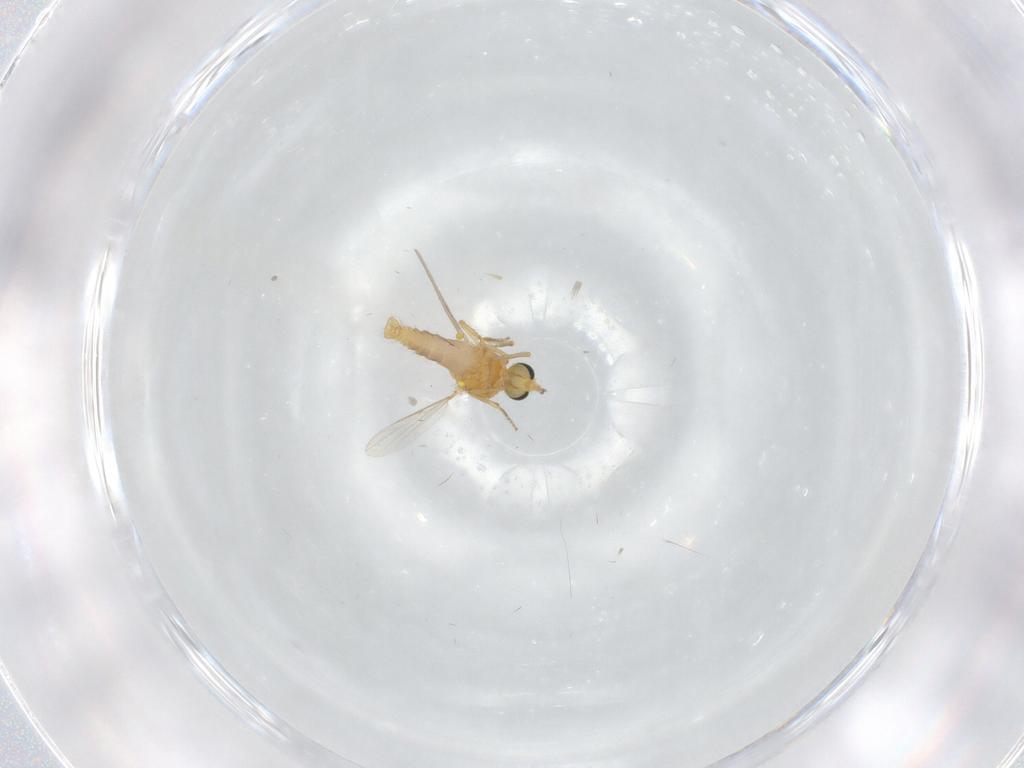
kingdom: Animalia
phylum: Arthropoda
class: Insecta
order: Diptera
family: Ceratopogonidae
